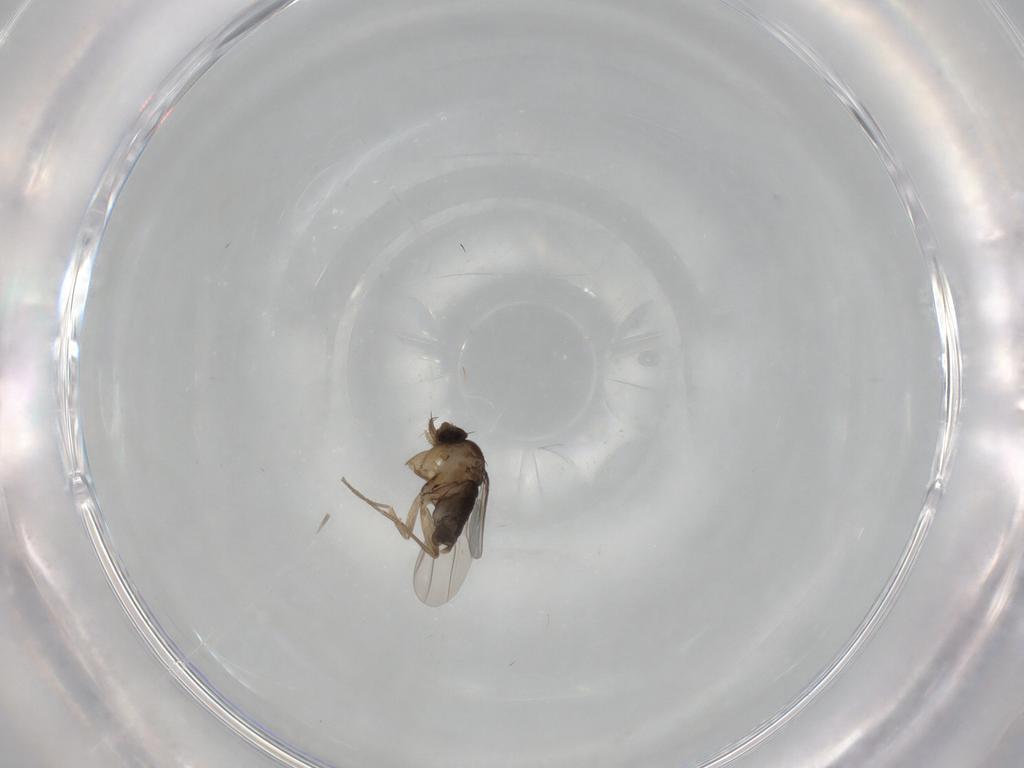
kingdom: Animalia
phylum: Arthropoda
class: Insecta
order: Diptera
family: Phoridae
